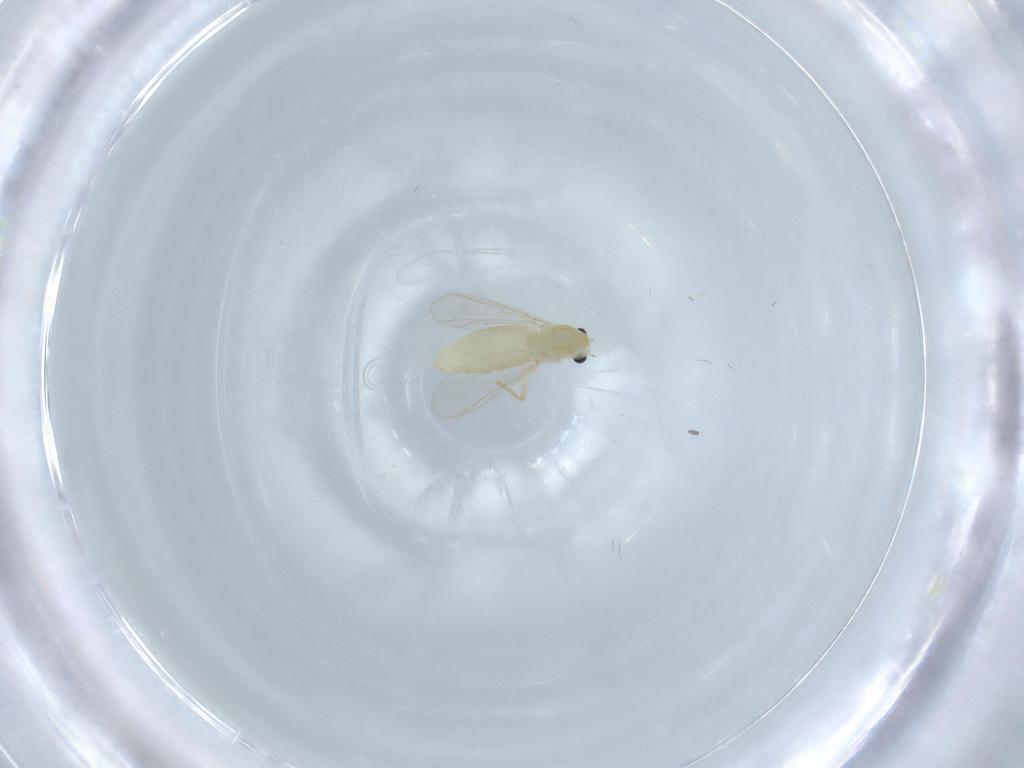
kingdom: Animalia
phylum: Arthropoda
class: Insecta
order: Diptera
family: Chironomidae
